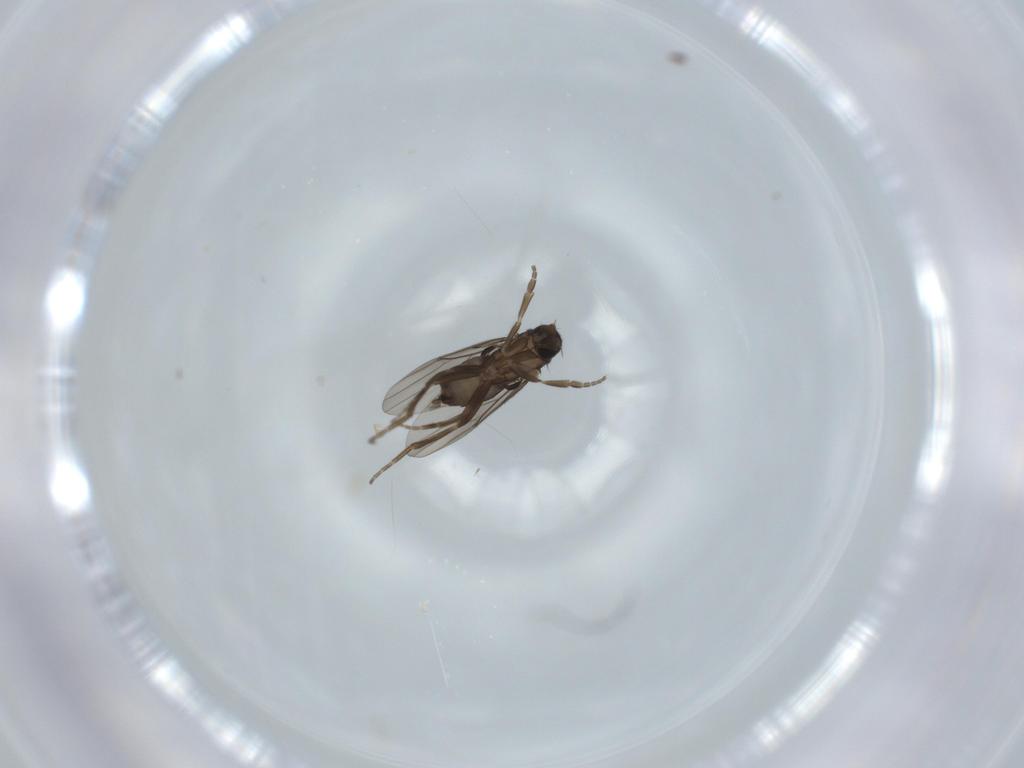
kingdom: Animalia
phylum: Arthropoda
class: Insecta
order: Diptera
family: Phoridae
